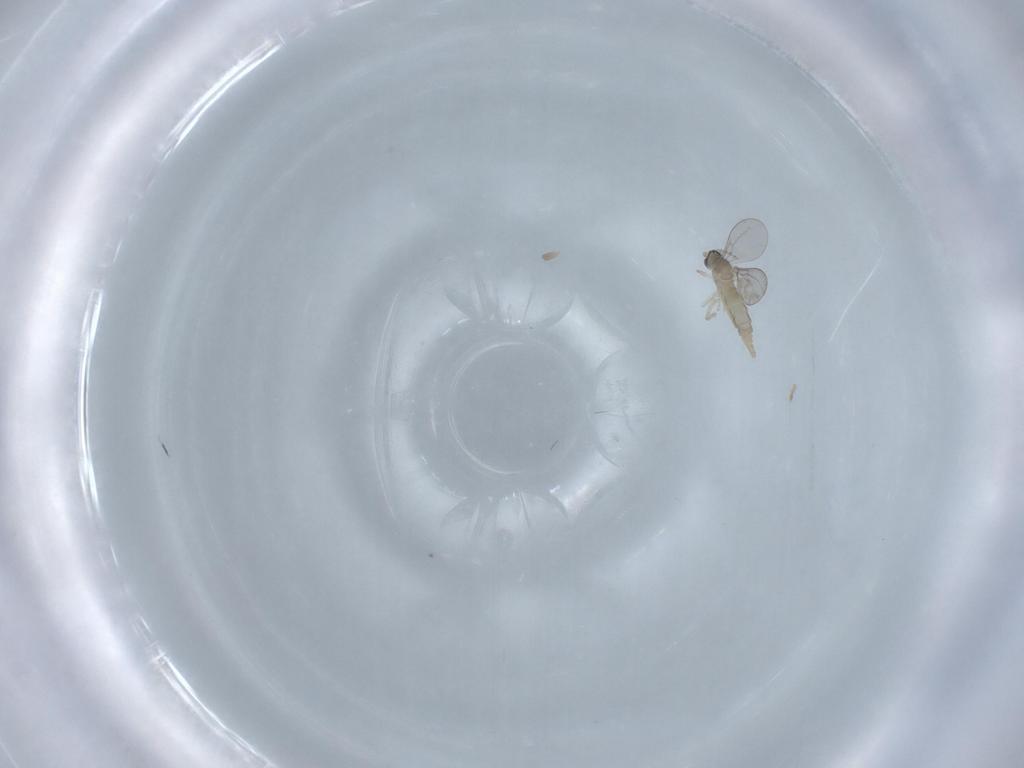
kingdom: Animalia
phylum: Arthropoda
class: Insecta
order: Diptera
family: Cecidomyiidae
